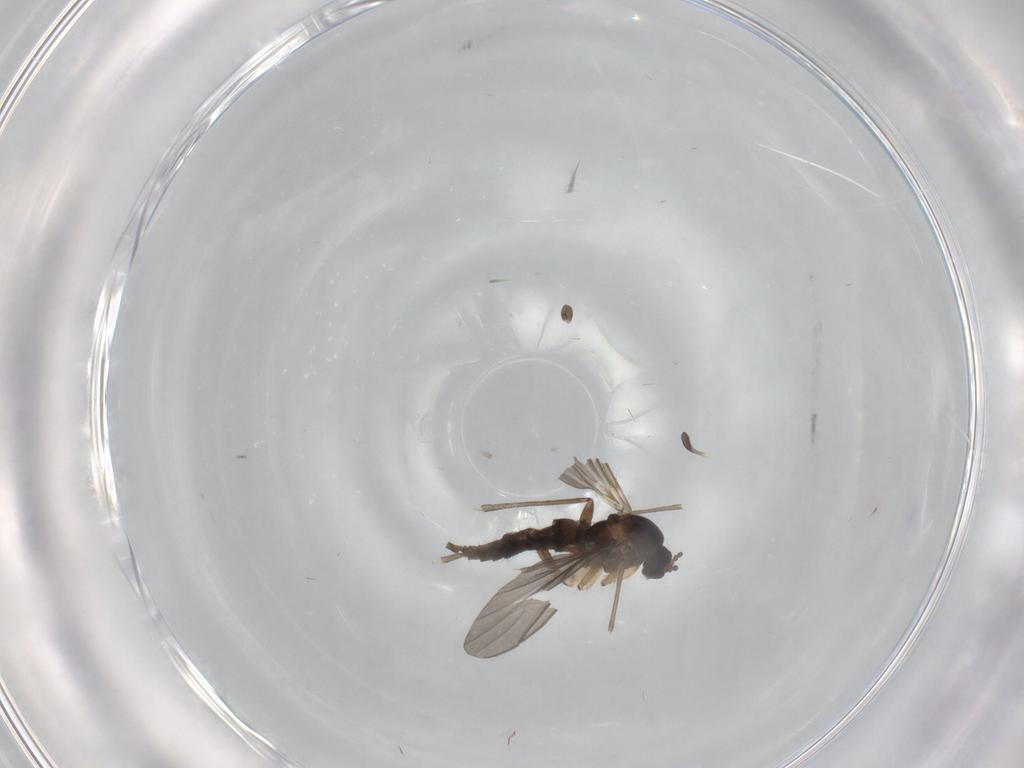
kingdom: Animalia
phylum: Arthropoda
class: Insecta
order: Diptera
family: Sciaridae
